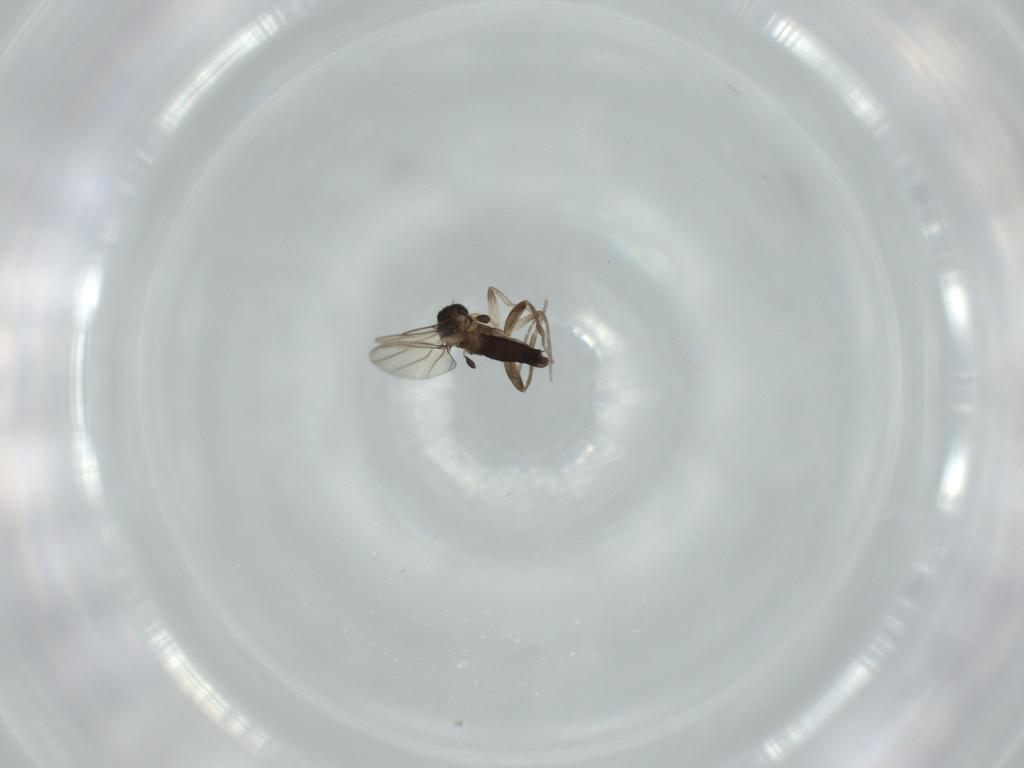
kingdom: Animalia
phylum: Arthropoda
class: Insecta
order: Diptera
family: Phoridae
